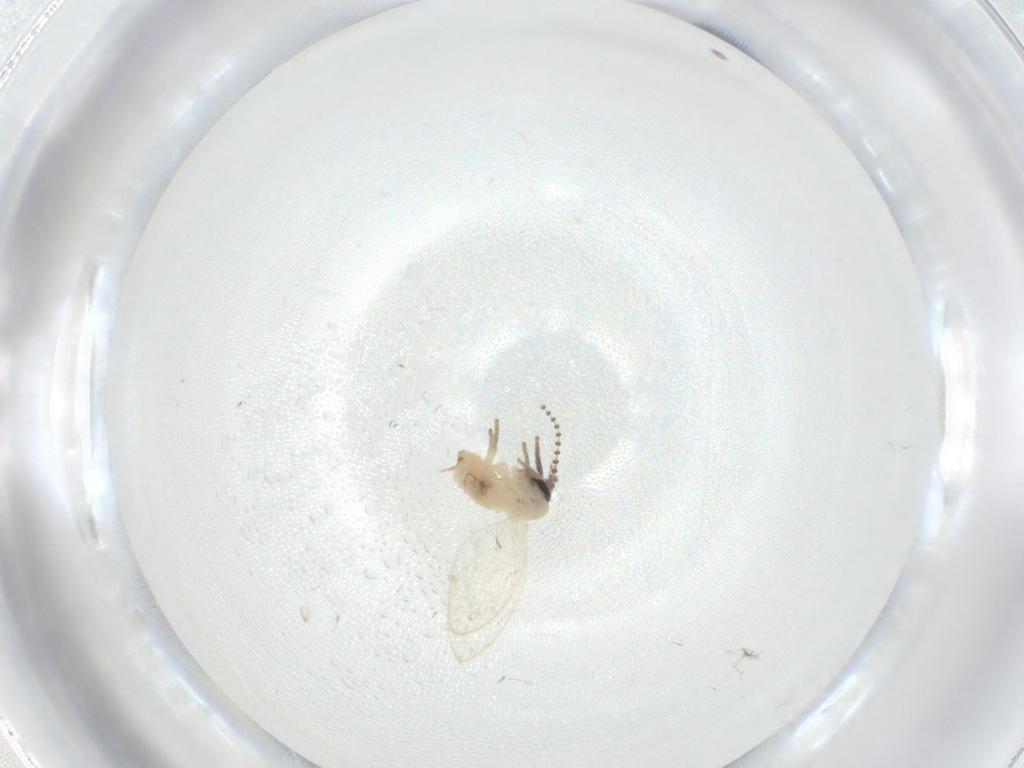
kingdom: Animalia
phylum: Arthropoda
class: Insecta
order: Diptera
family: Psychodidae
